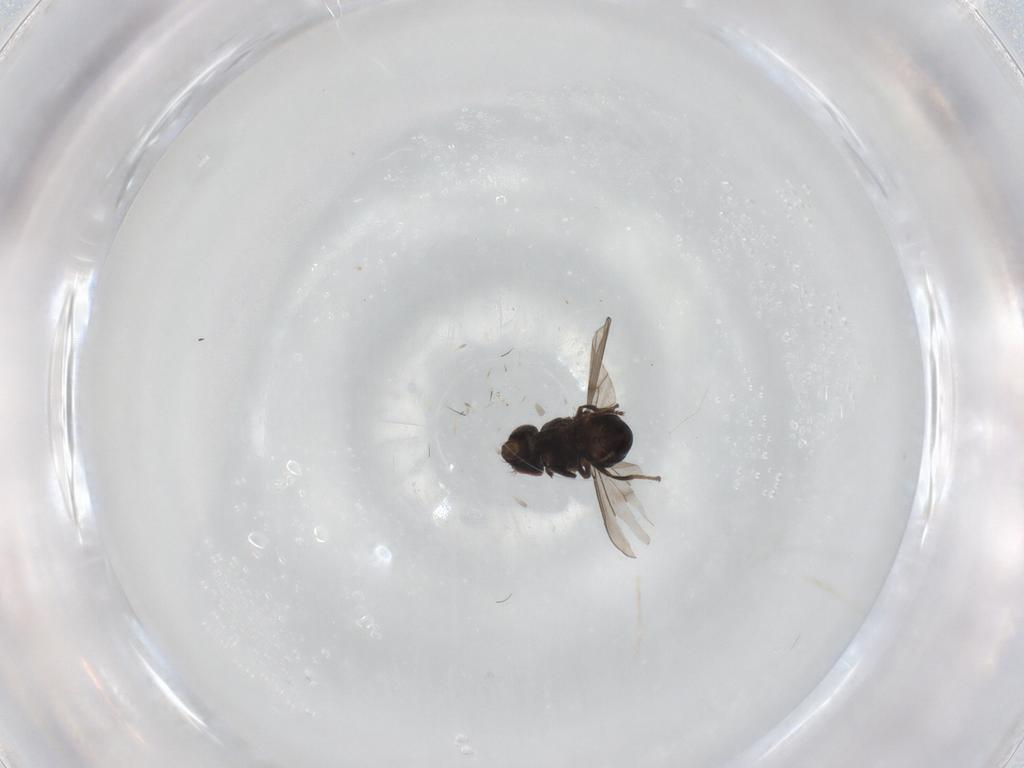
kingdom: Animalia
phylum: Arthropoda
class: Insecta
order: Diptera
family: Ephydridae
